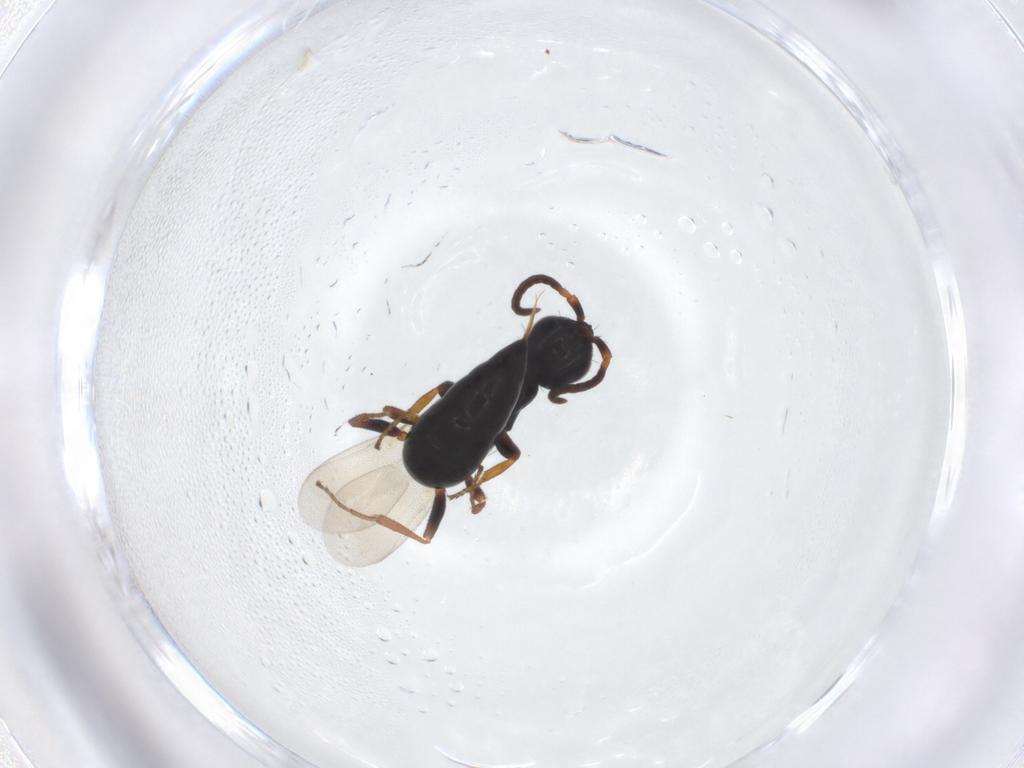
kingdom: Animalia
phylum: Arthropoda
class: Insecta
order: Hymenoptera
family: Bethylidae
